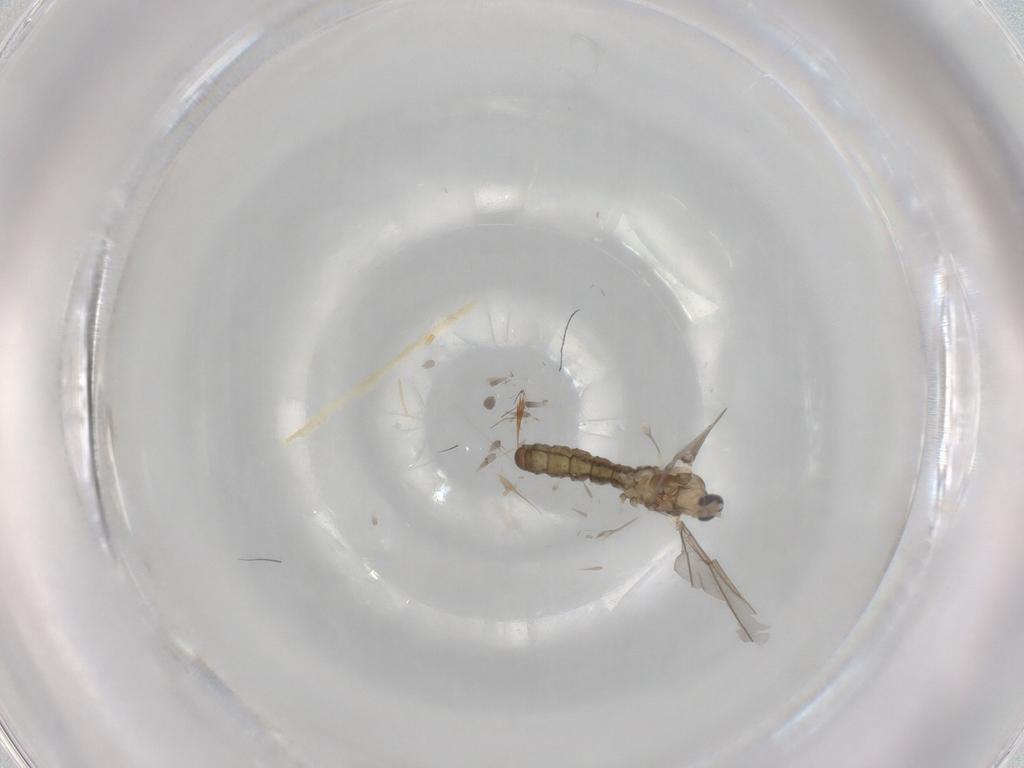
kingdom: Animalia
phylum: Arthropoda
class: Insecta
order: Diptera
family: Cecidomyiidae
